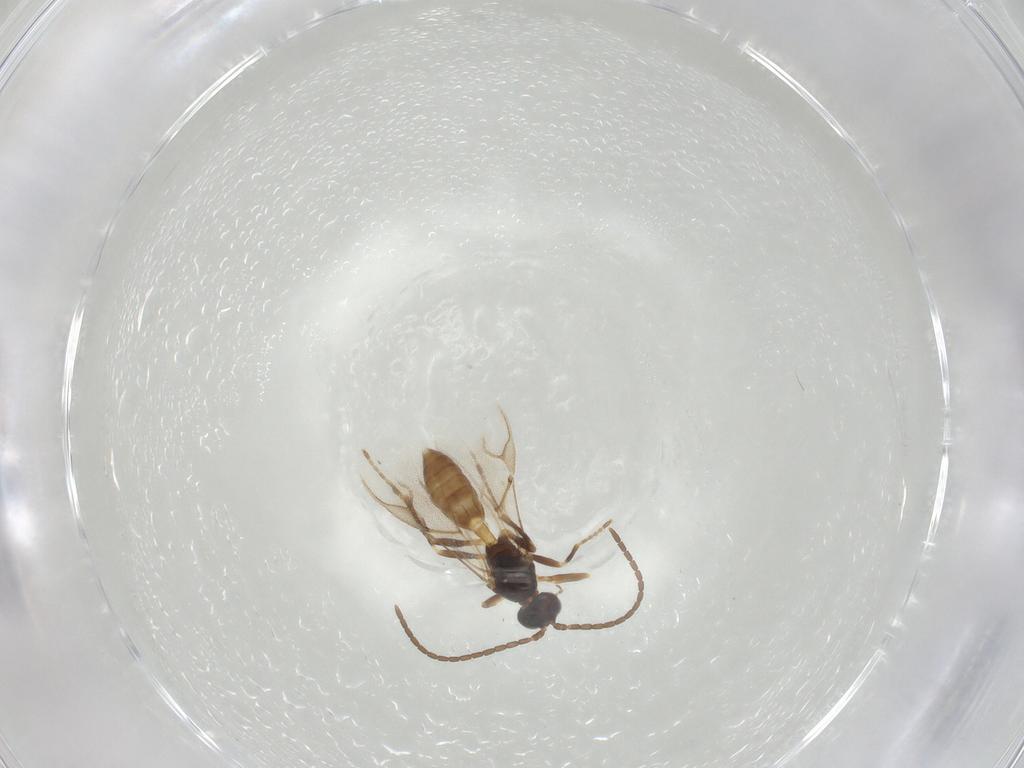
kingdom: Animalia
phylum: Arthropoda
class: Insecta
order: Hymenoptera
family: Braconidae
